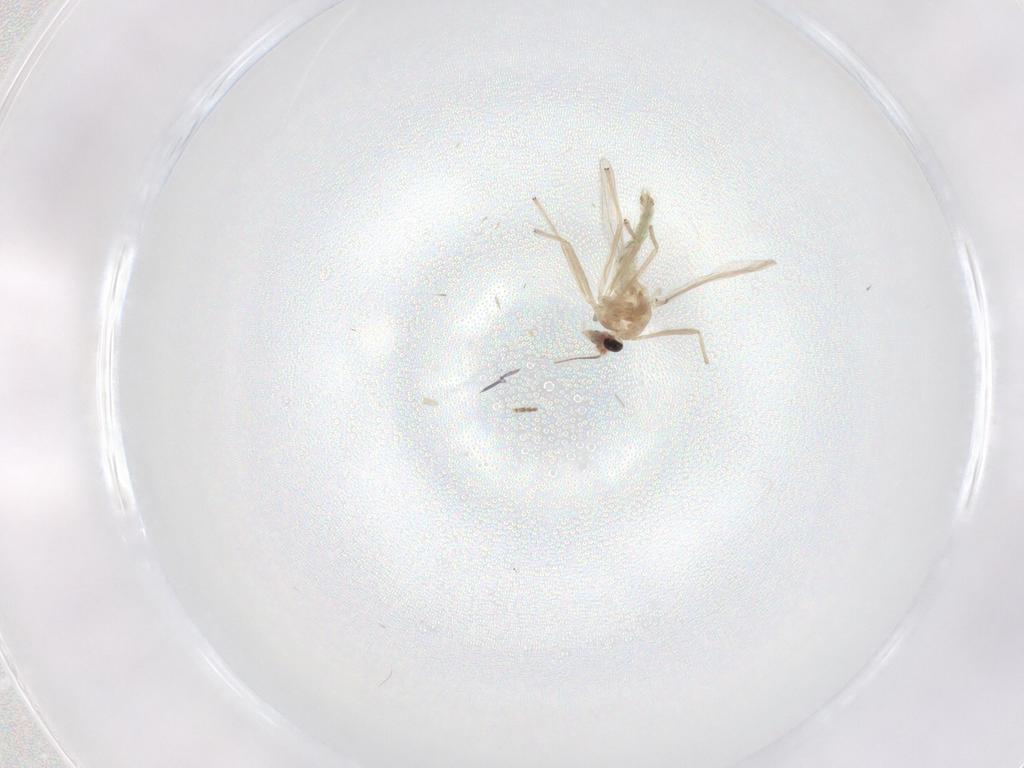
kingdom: Animalia
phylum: Arthropoda
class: Insecta
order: Diptera
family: Chironomidae
